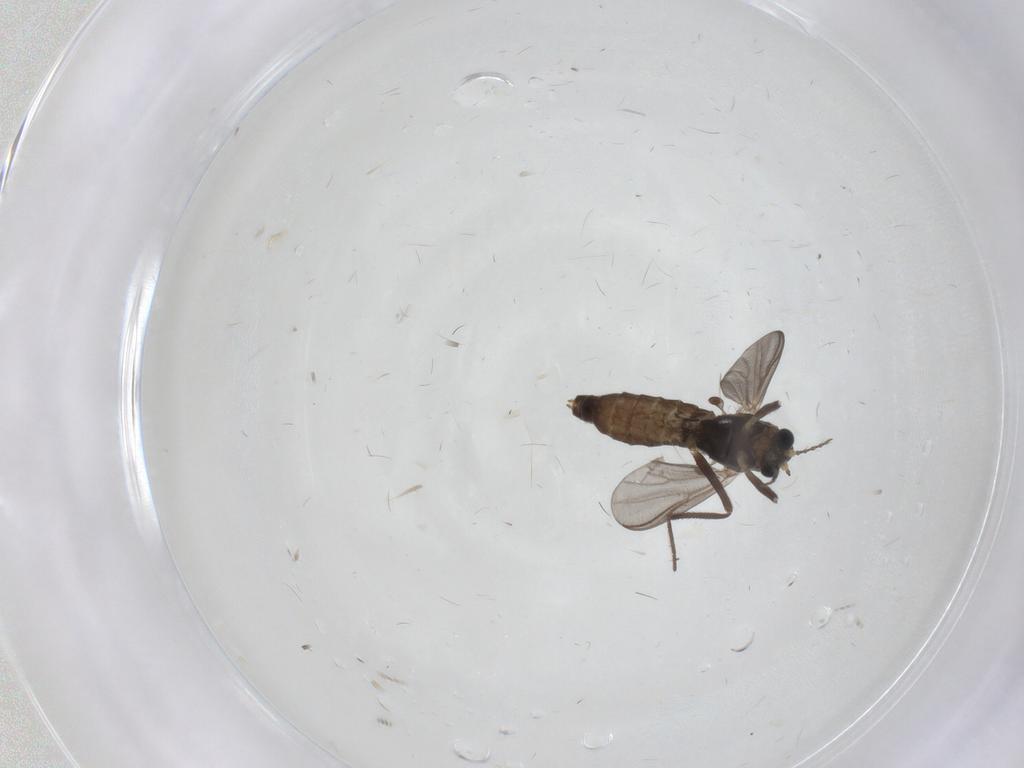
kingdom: Animalia
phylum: Arthropoda
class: Insecta
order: Diptera
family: Chironomidae
